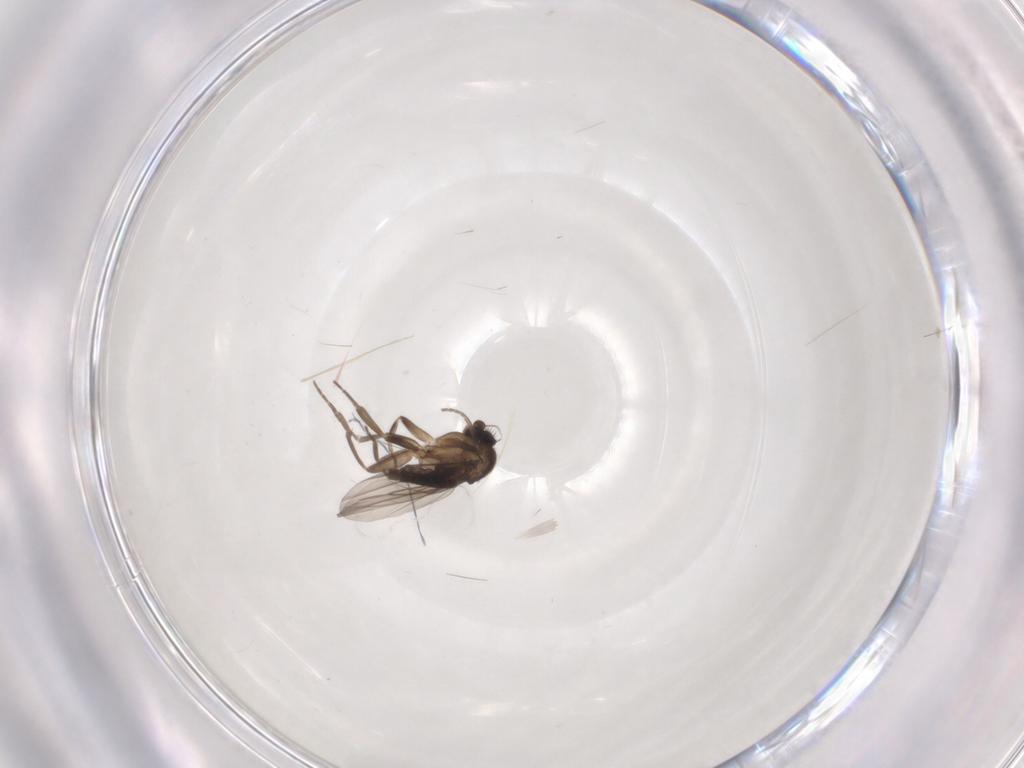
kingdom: Animalia
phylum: Arthropoda
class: Insecta
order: Diptera
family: Phoridae
